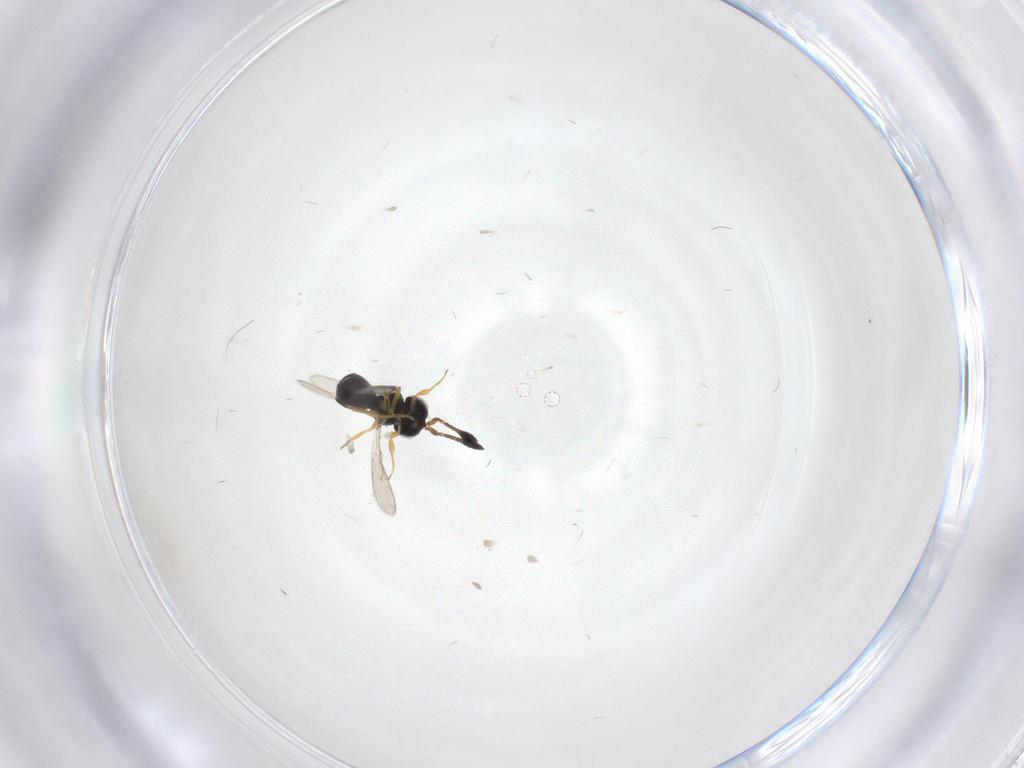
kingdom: Animalia
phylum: Arthropoda
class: Insecta
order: Hymenoptera
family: Scelionidae
